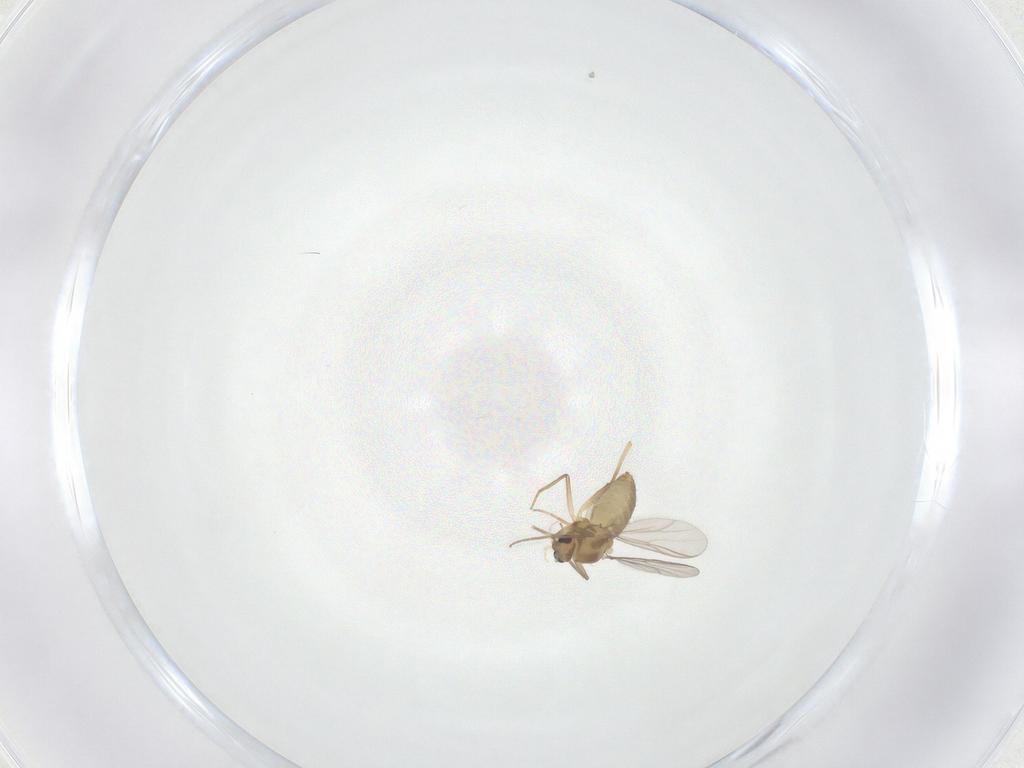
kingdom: Animalia
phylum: Arthropoda
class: Insecta
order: Diptera
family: Chironomidae
